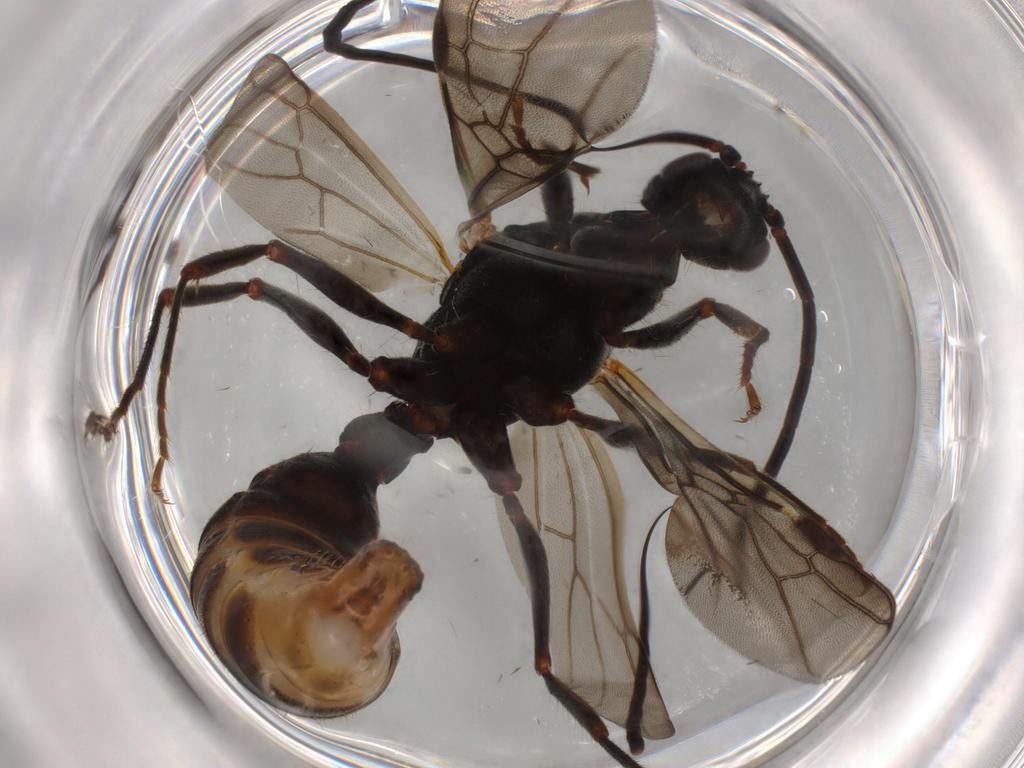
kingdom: Animalia
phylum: Arthropoda
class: Insecta
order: Hymenoptera
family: Formicidae
